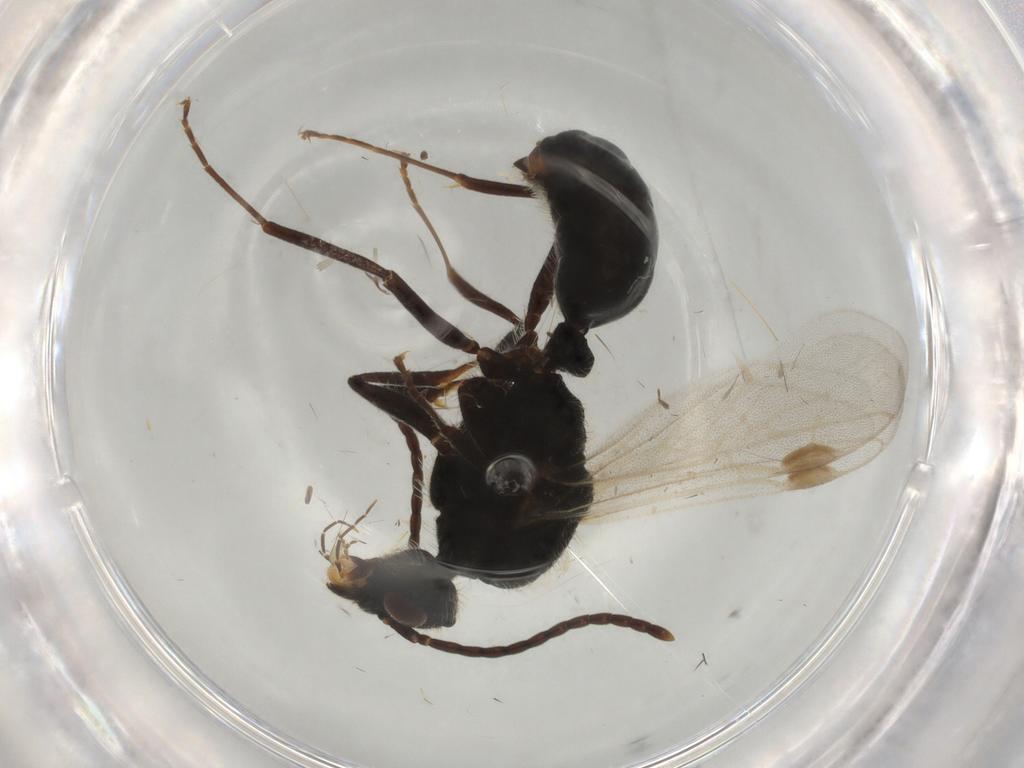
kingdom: Animalia
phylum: Arthropoda
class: Insecta
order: Hymenoptera
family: Formicidae
